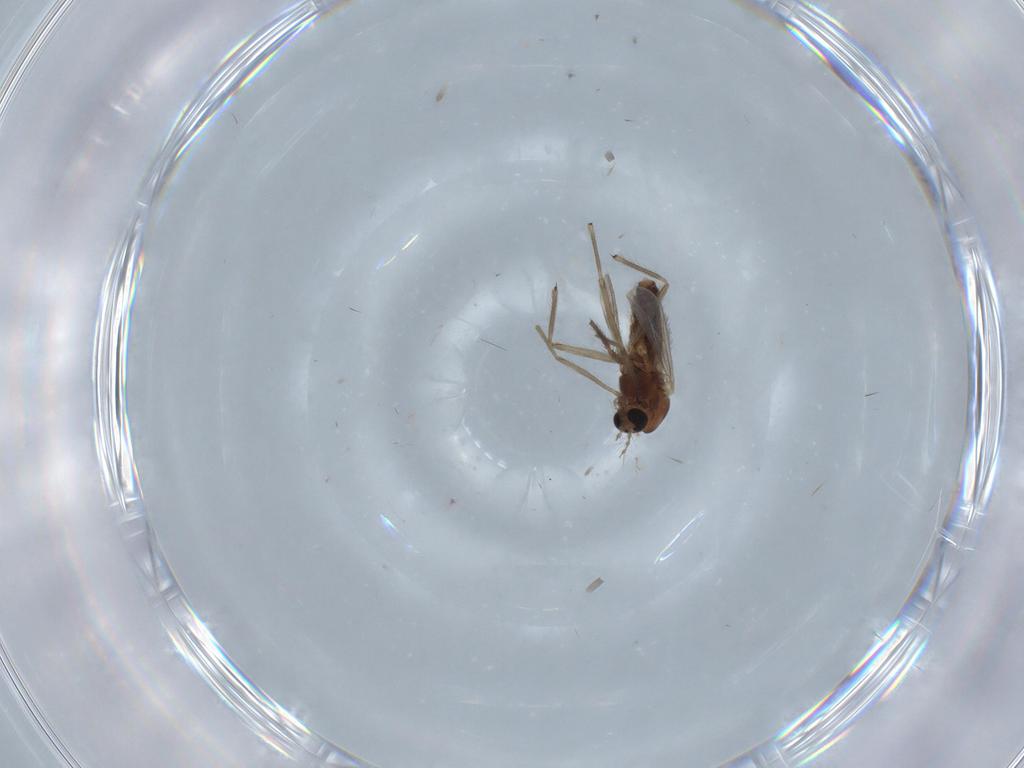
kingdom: Animalia
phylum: Arthropoda
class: Insecta
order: Diptera
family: Chironomidae
